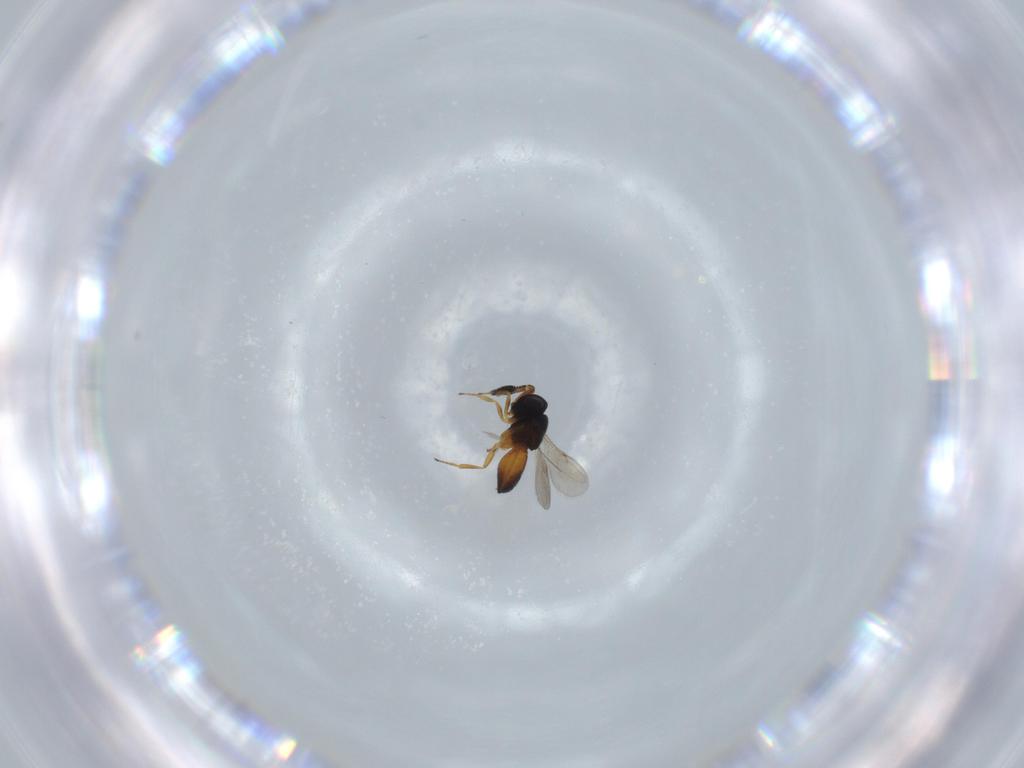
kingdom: Animalia
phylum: Arthropoda
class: Insecta
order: Hymenoptera
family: Scelionidae
